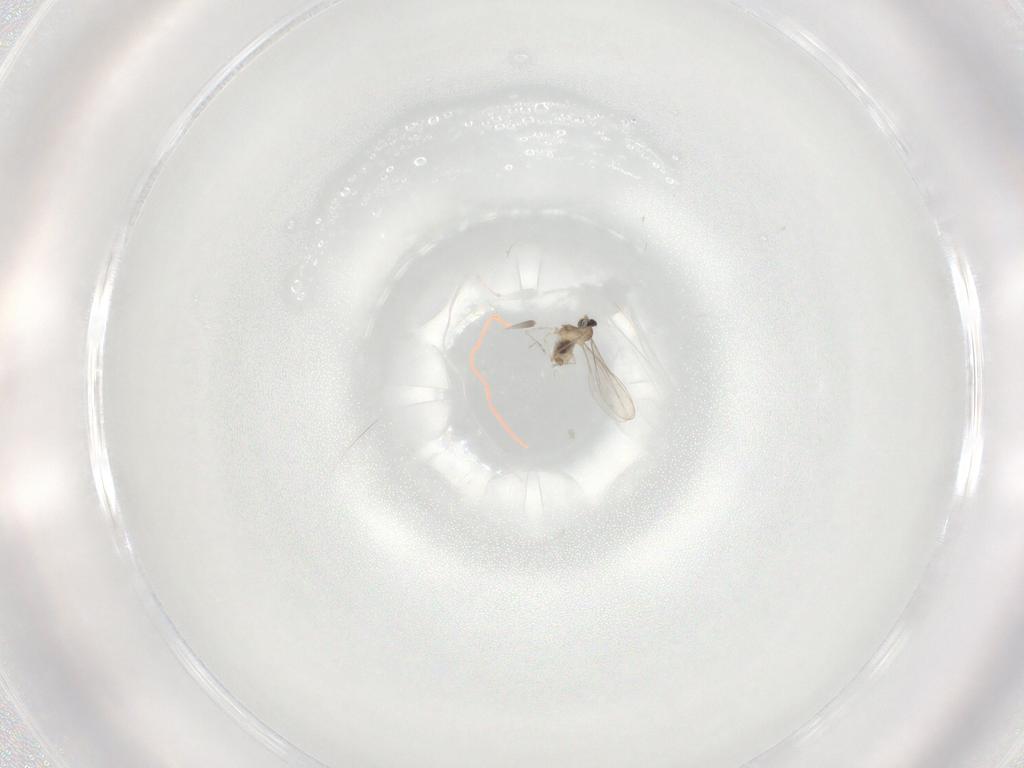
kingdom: Animalia
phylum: Arthropoda
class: Insecta
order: Diptera
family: Cecidomyiidae
